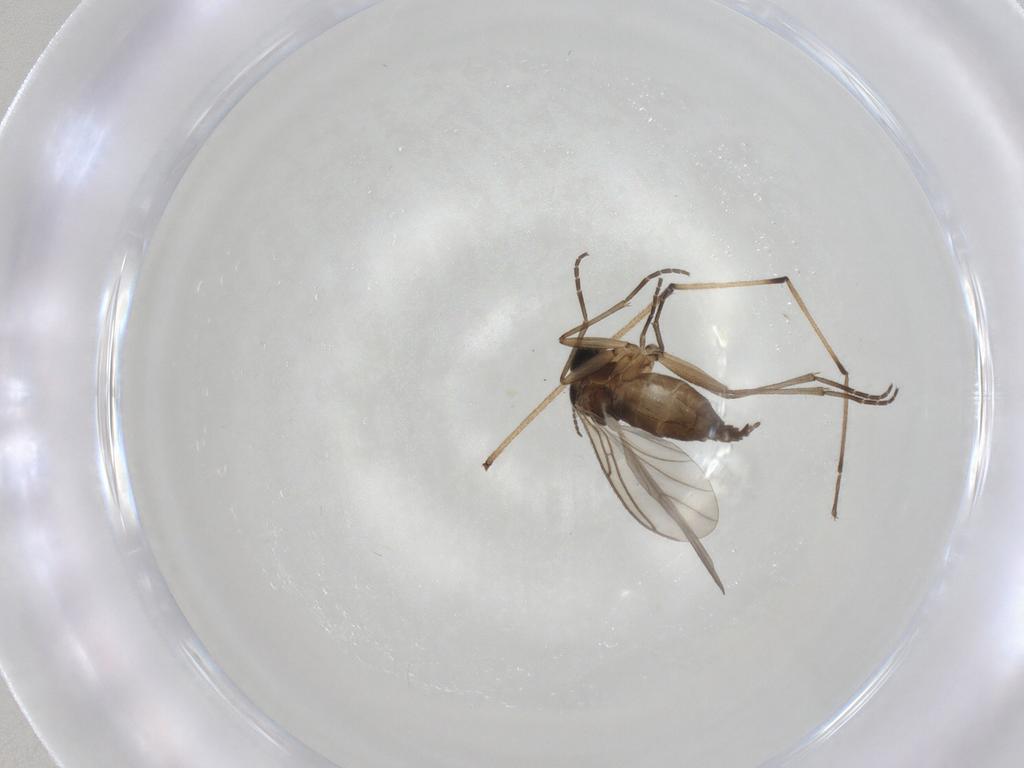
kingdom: Animalia
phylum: Arthropoda
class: Insecta
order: Diptera
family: Chironomidae
